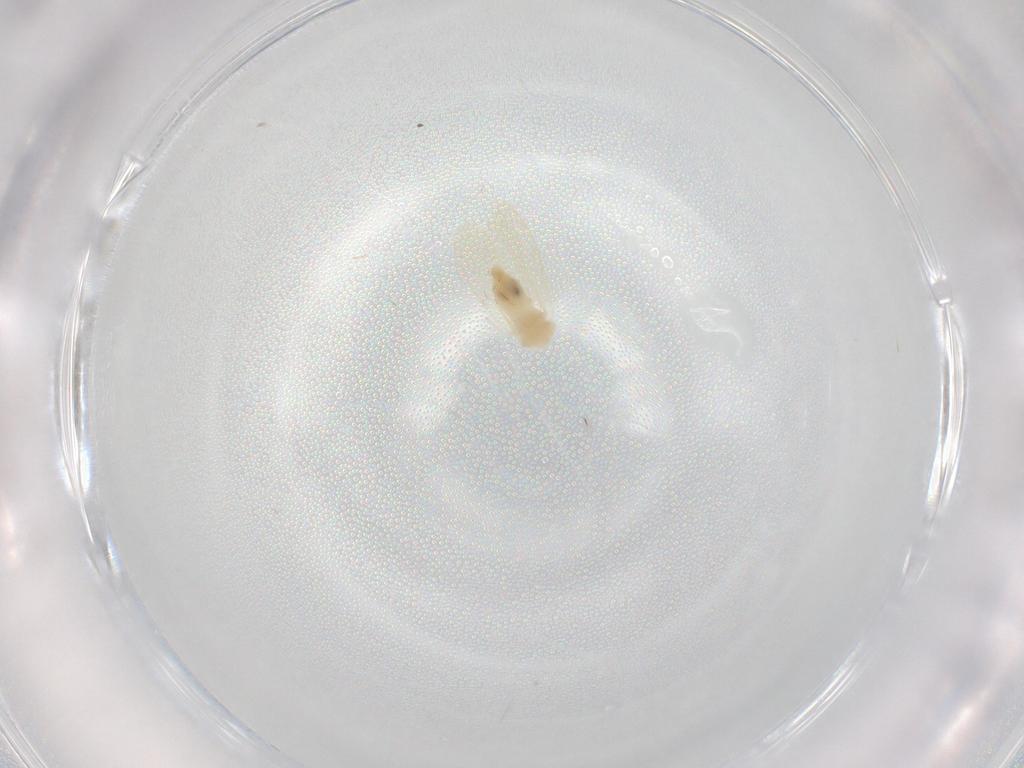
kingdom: Animalia
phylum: Arthropoda
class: Insecta
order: Hemiptera
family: Aleyrodidae
